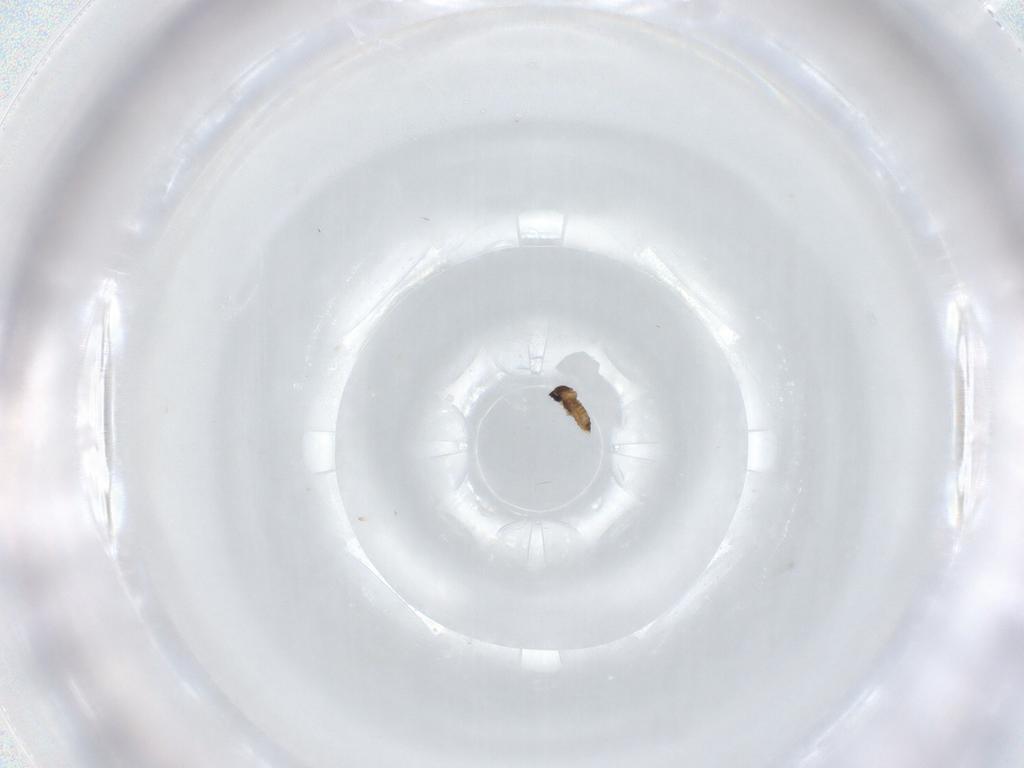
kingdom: Animalia
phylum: Arthropoda
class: Insecta
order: Diptera
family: Cecidomyiidae
